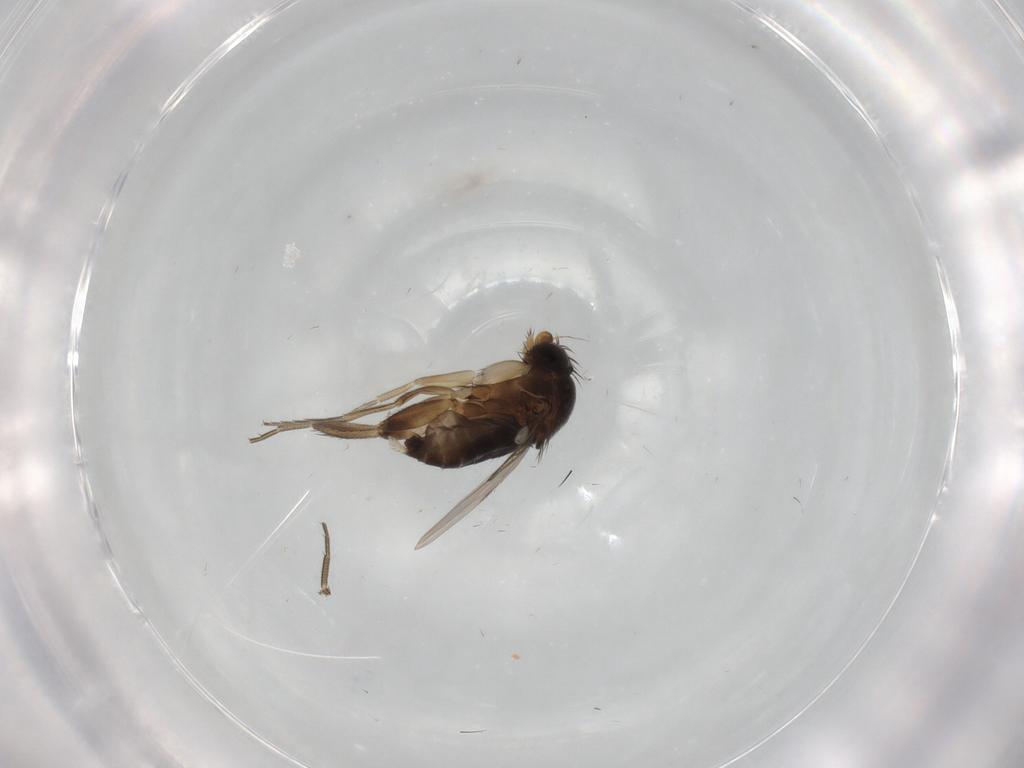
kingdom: Animalia
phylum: Arthropoda
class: Insecta
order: Diptera
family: Phoridae
